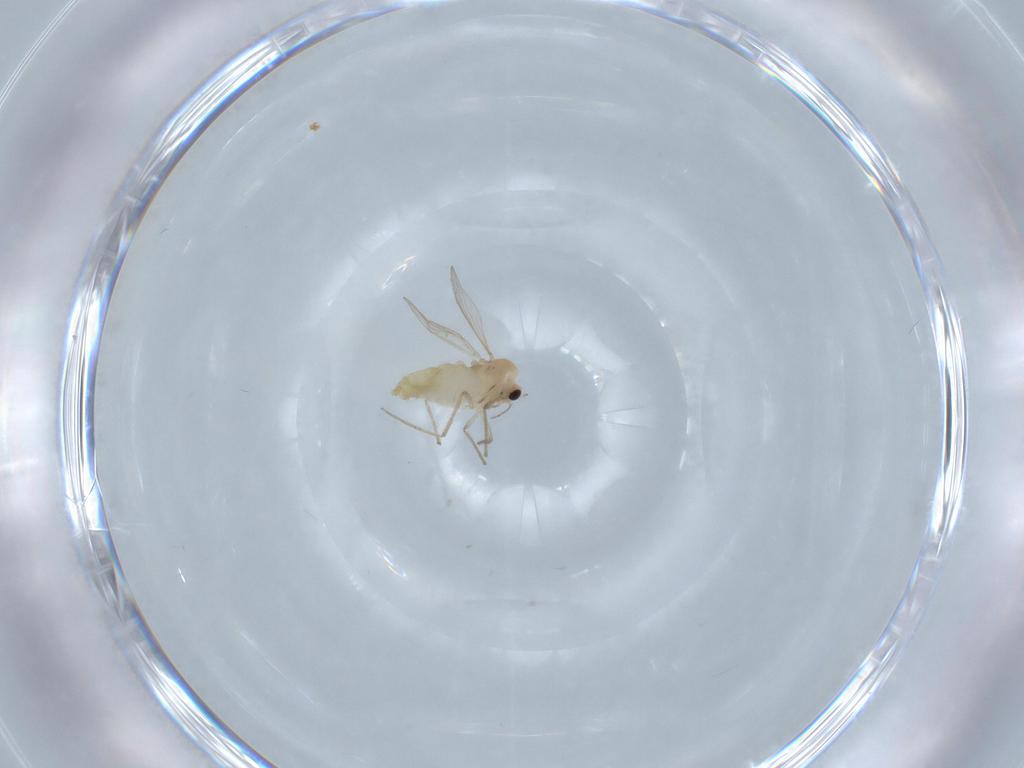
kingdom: Animalia
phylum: Arthropoda
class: Insecta
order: Diptera
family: Chironomidae
